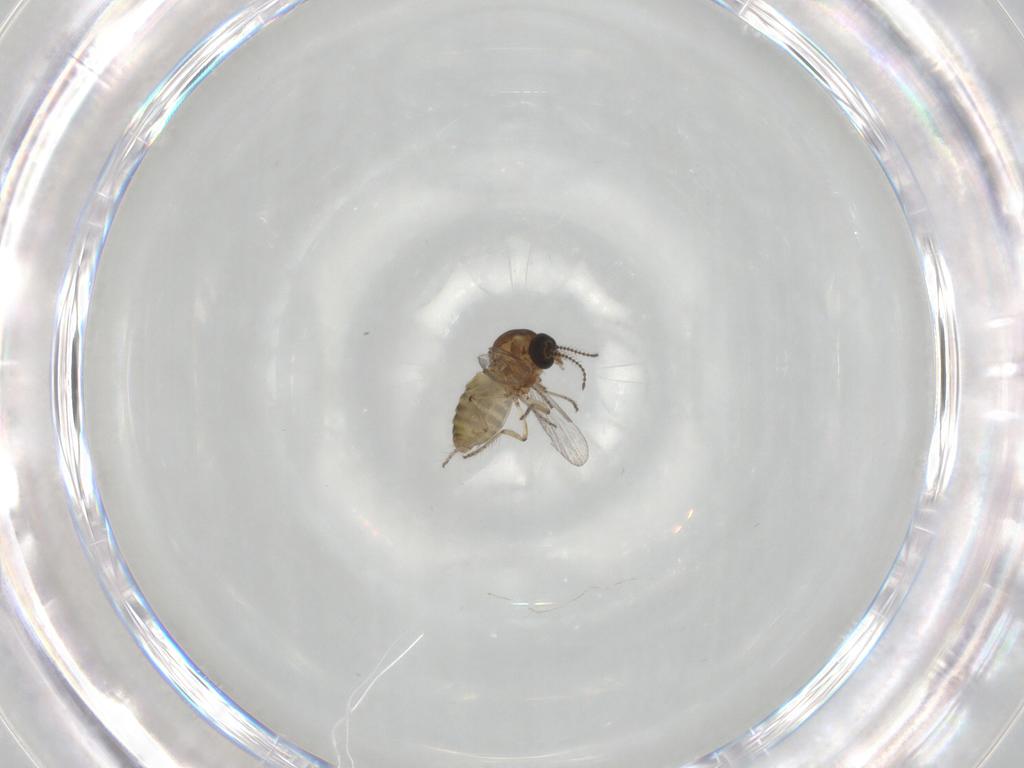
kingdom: Animalia
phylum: Arthropoda
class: Insecta
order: Diptera
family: Ceratopogonidae
